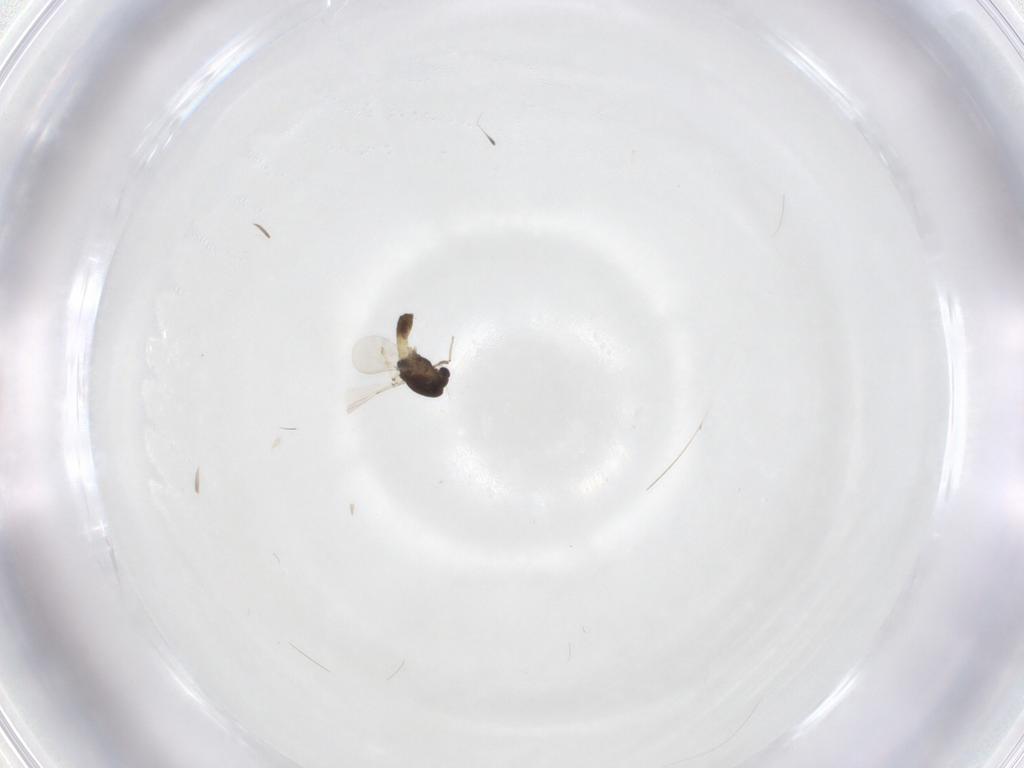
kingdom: Animalia
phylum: Arthropoda
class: Insecta
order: Diptera
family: Chironomidae
